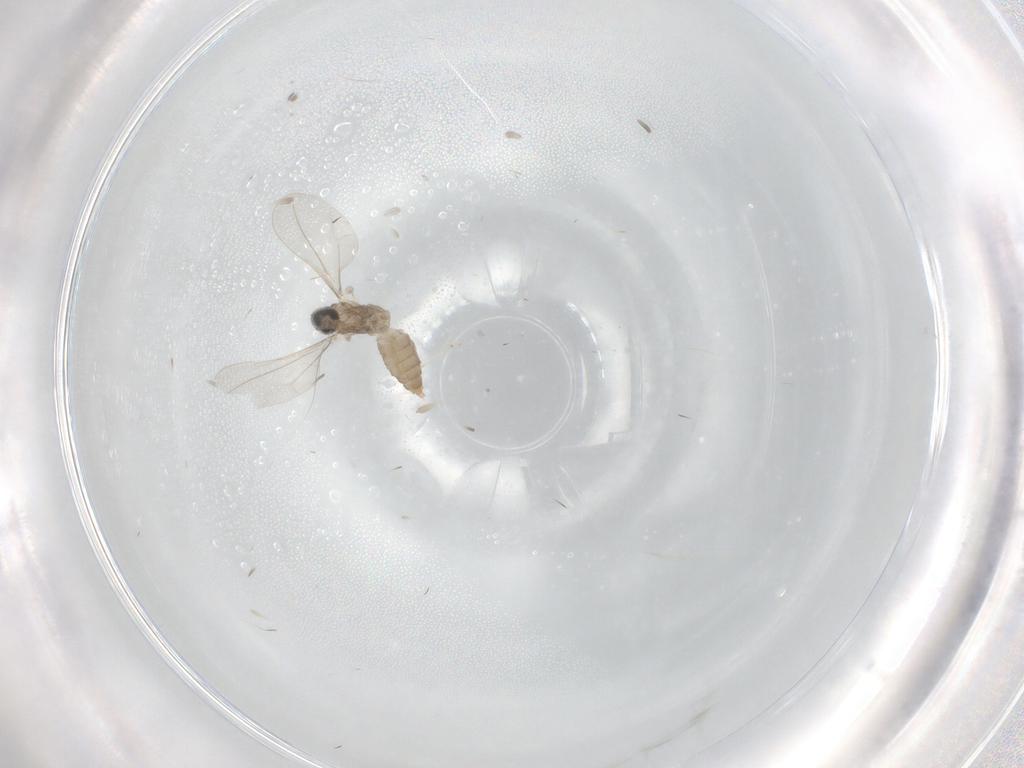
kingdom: Animalia
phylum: Arthropoda
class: Insecta
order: Diptera
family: Cecidomyiidae
